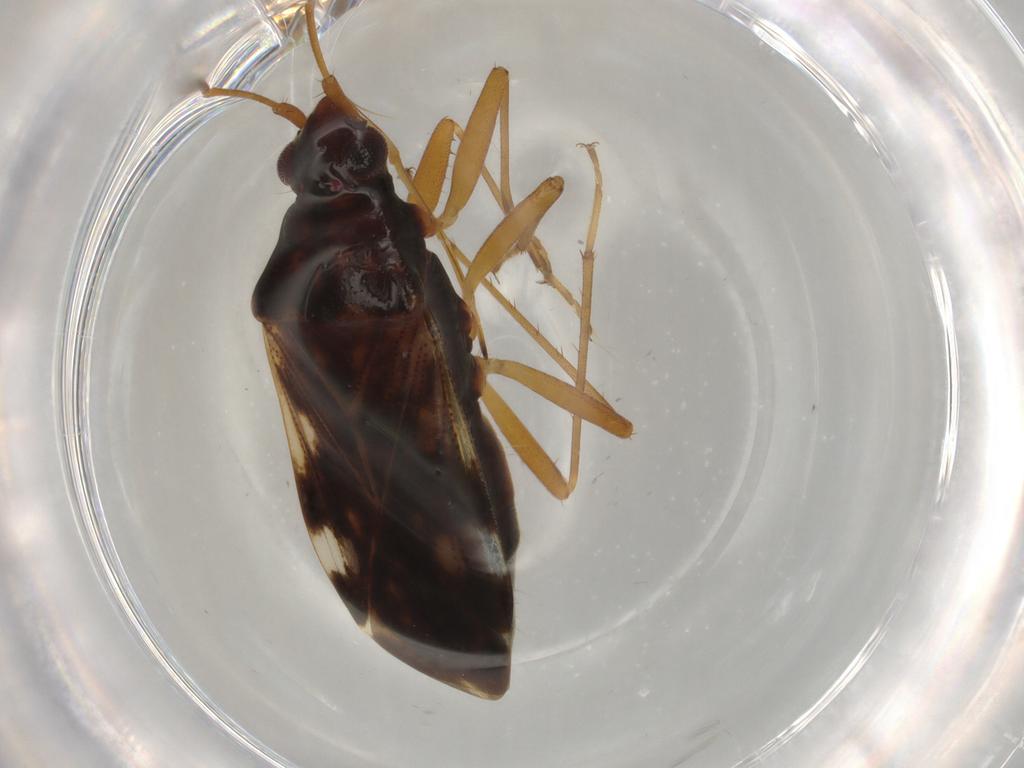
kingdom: Animalia
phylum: Arthropoda
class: Insecta
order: Hemiptera
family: Rhyparochromidae
